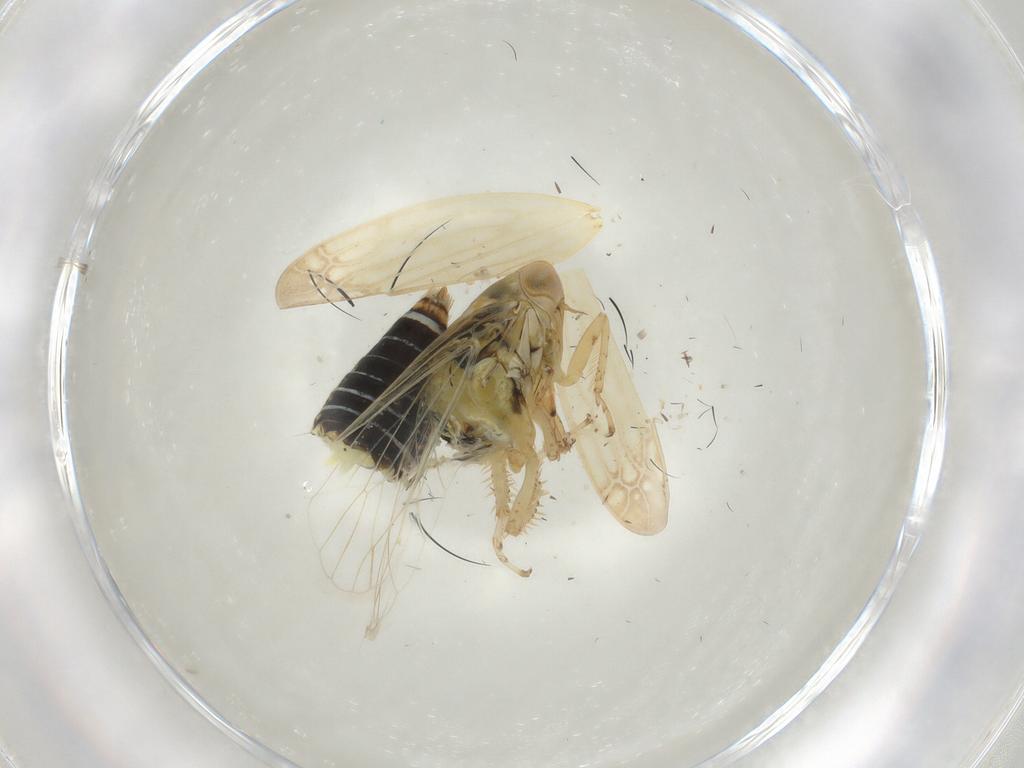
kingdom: Animalia
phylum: Arthropoda
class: Insecta
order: Hemiptera
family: Cicadellidae
